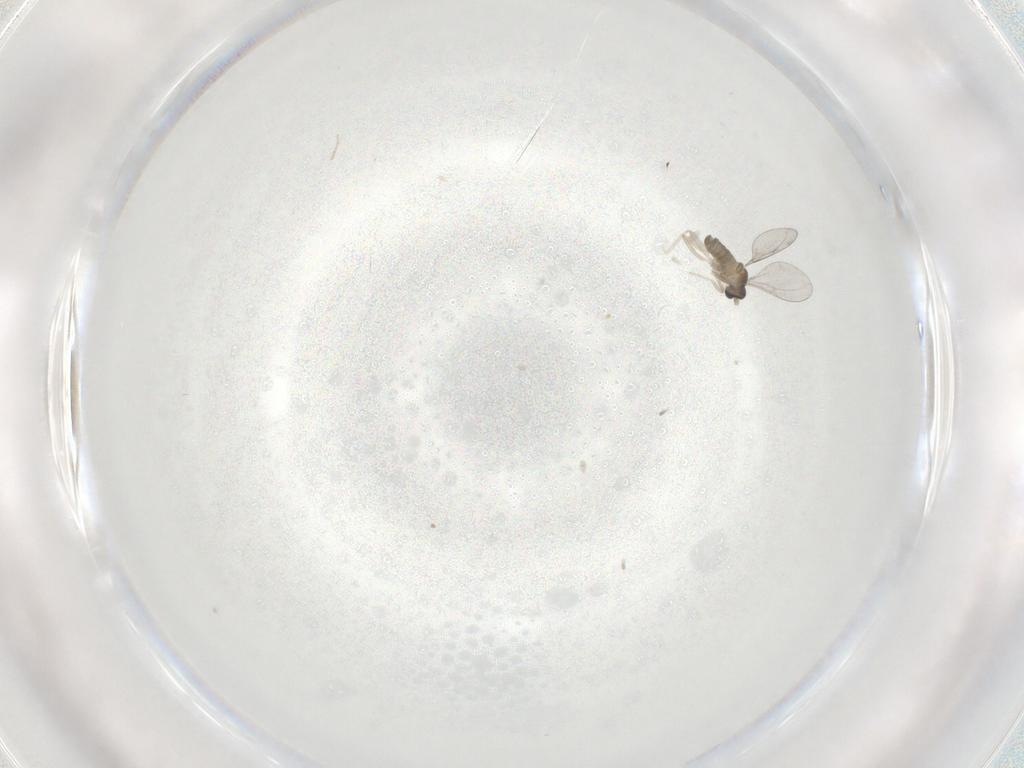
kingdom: Animalia
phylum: Arthropoda
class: Insecta
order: Diptera
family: Cecidomyiidae
